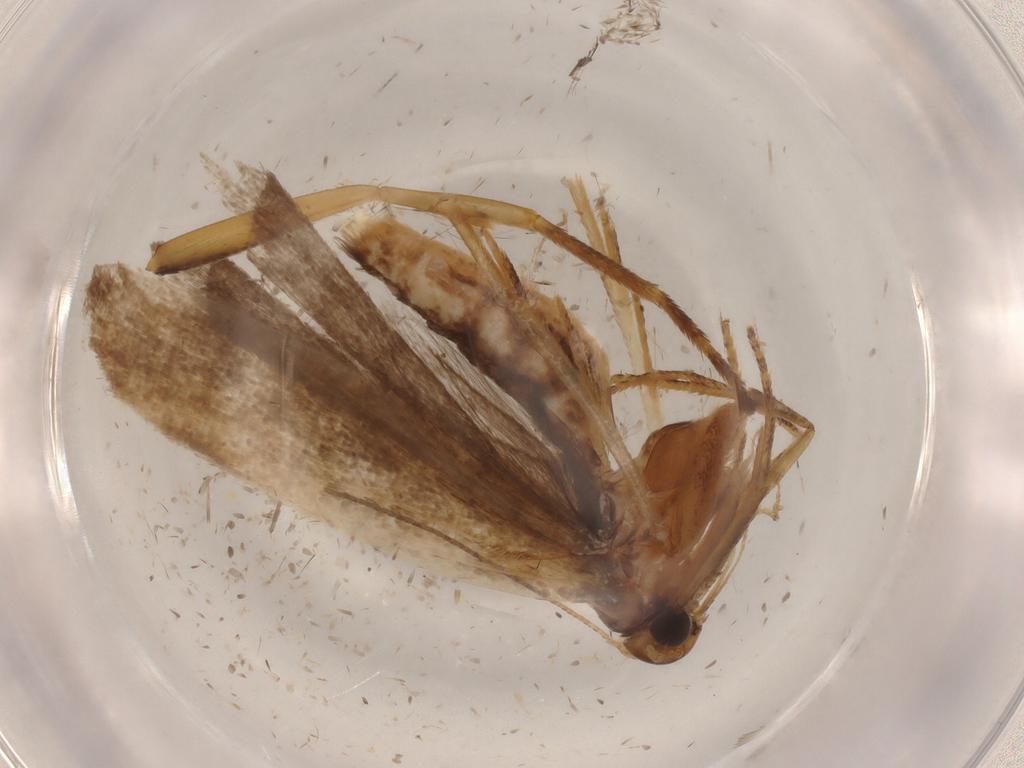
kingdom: Animalia
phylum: Arthropoda
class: Insecta
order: Lepidoptera
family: Gelechiidae
